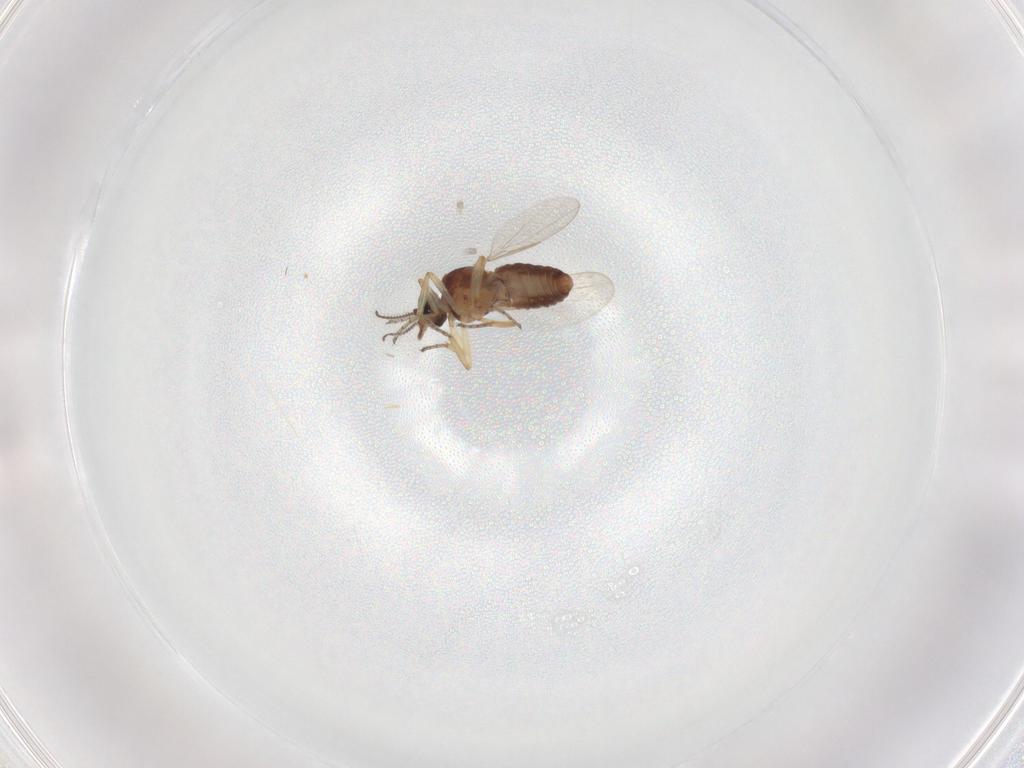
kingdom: Animalia
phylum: Arthropoda
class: Insecta
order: Diptera
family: Ceratopogonidae
